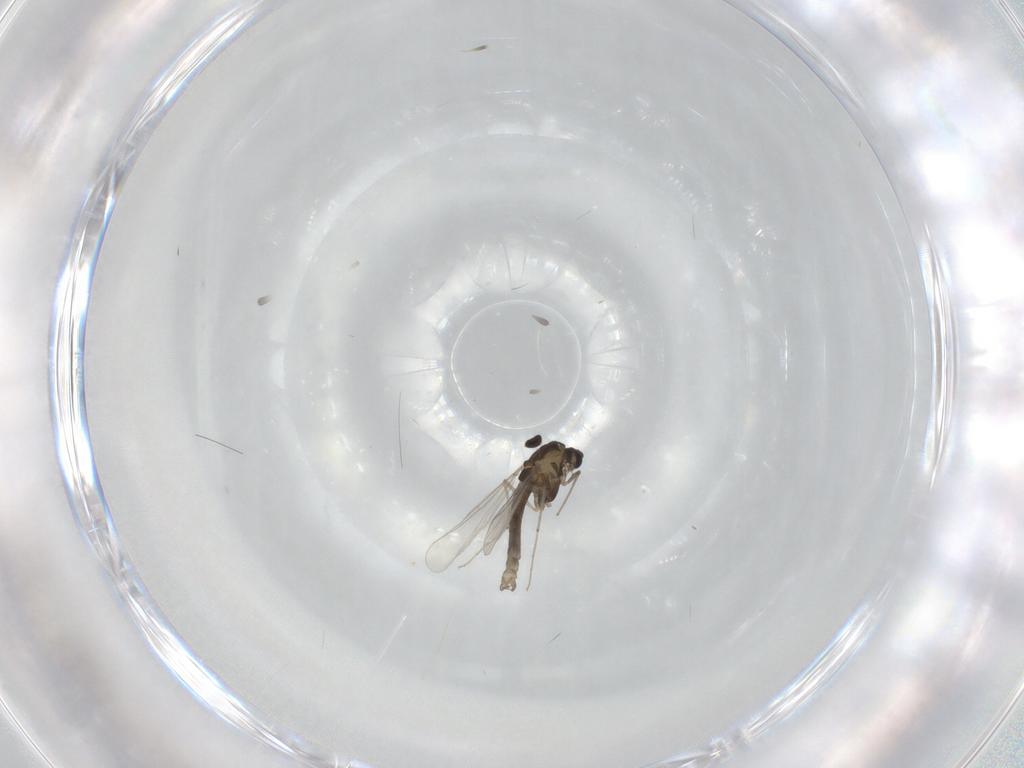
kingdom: Animalia
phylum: Arthropoda
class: Insecta
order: Diptera
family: Chironomidae
